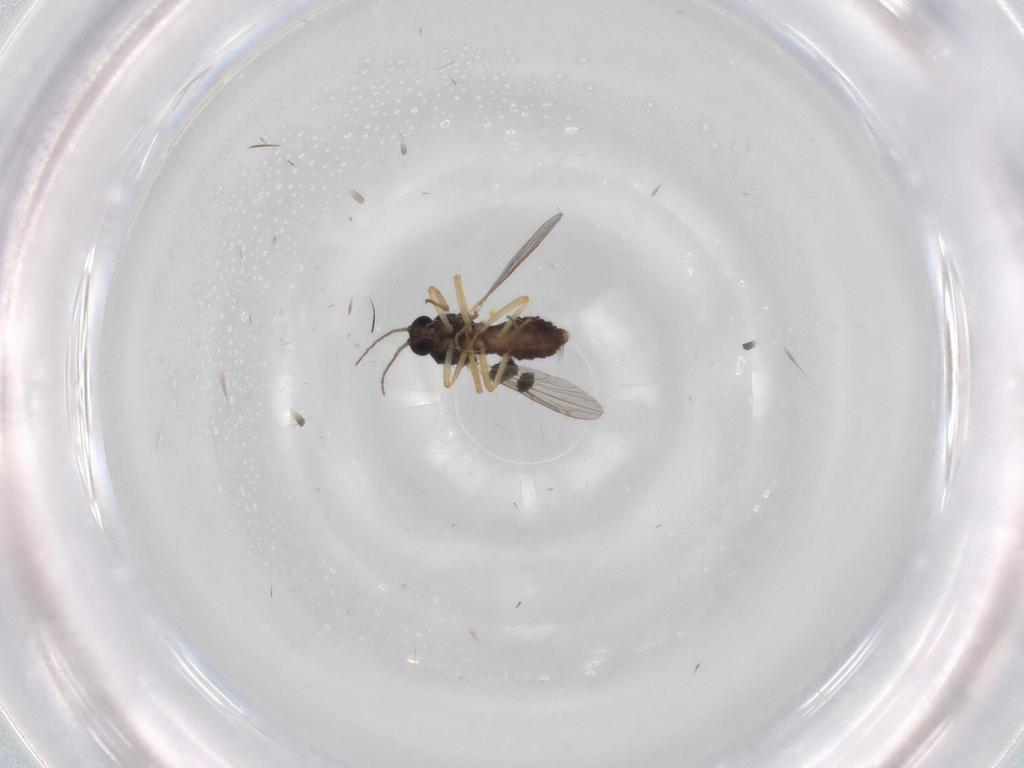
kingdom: Animalia
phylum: Arthropoda
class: Insecta
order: Diptera
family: Ceratopogonidae
